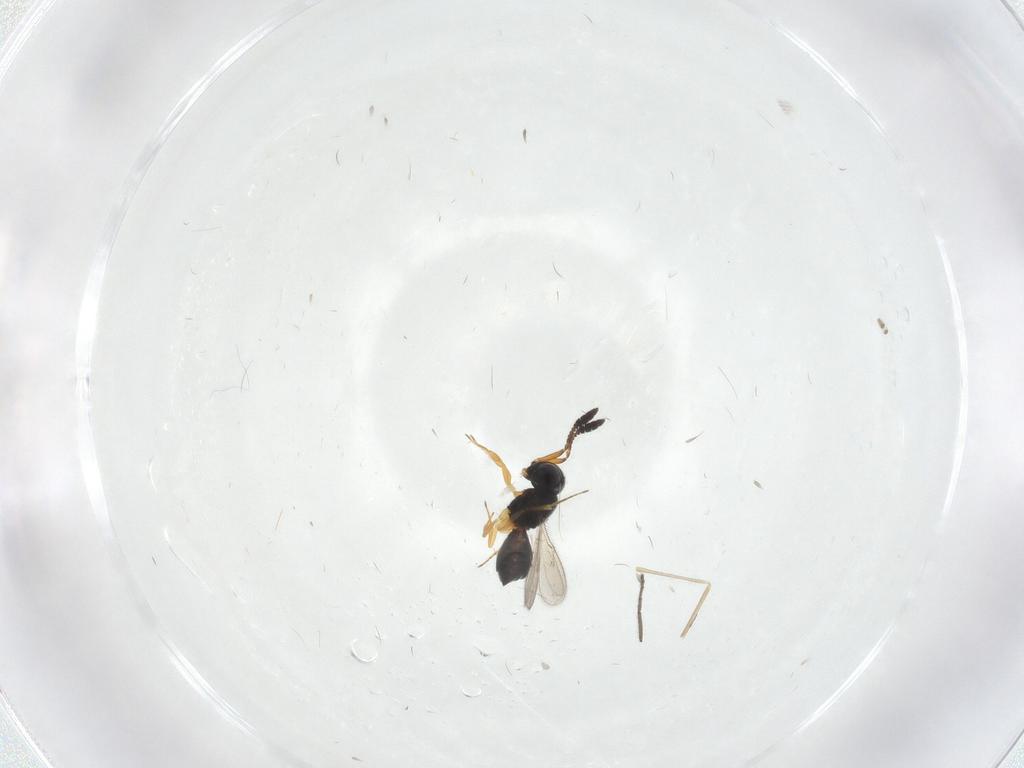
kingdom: Animalia
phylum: Arthropoda
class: Insecta
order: Hymenoptera
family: Scelionidae
